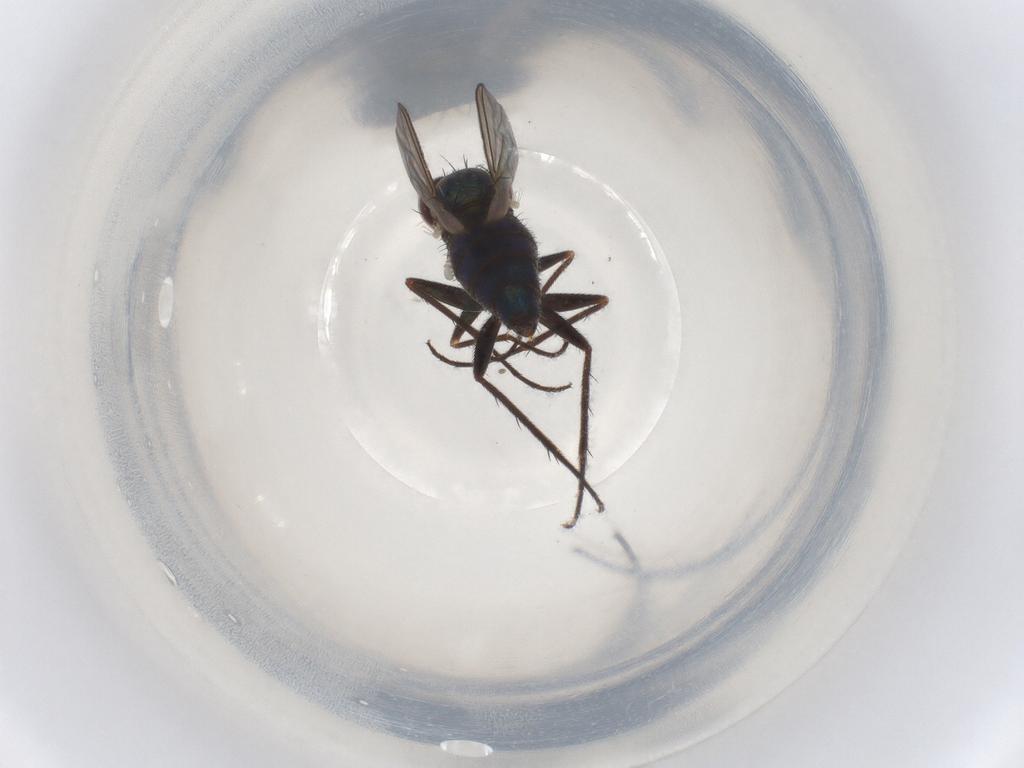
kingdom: Animalia
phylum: Arthropoda
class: Insecta
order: Diptera
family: Dolichopodidae
